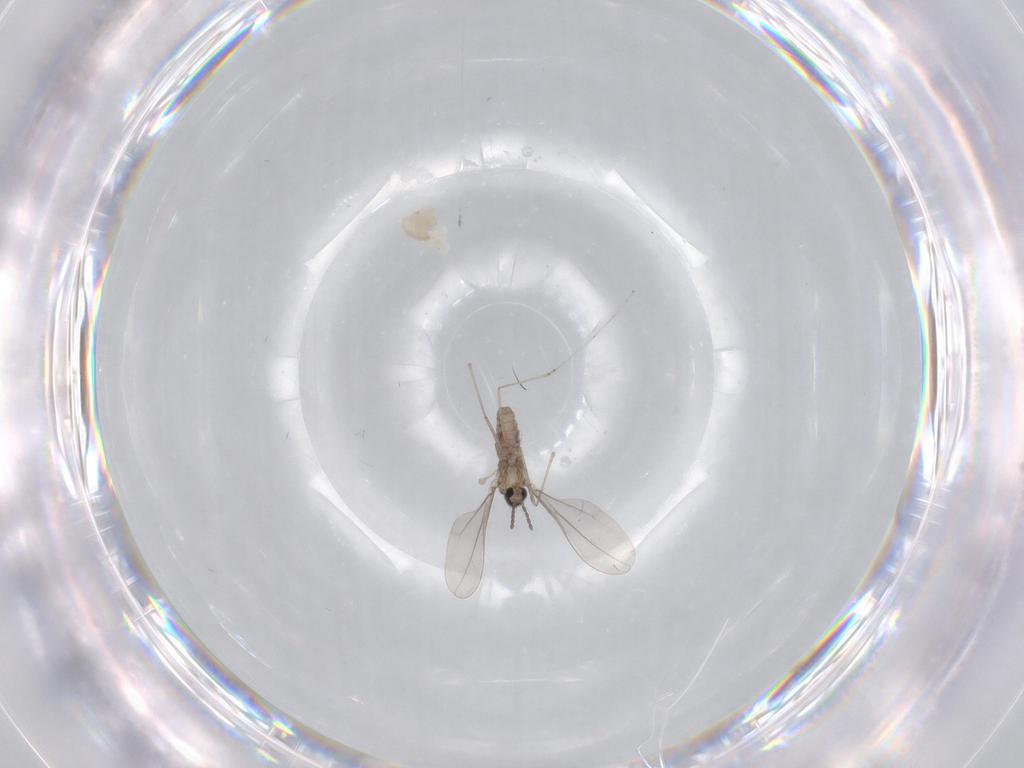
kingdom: Animalia
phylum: Arthropoda
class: Insecta
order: Diptera
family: Cecidomyiidae
